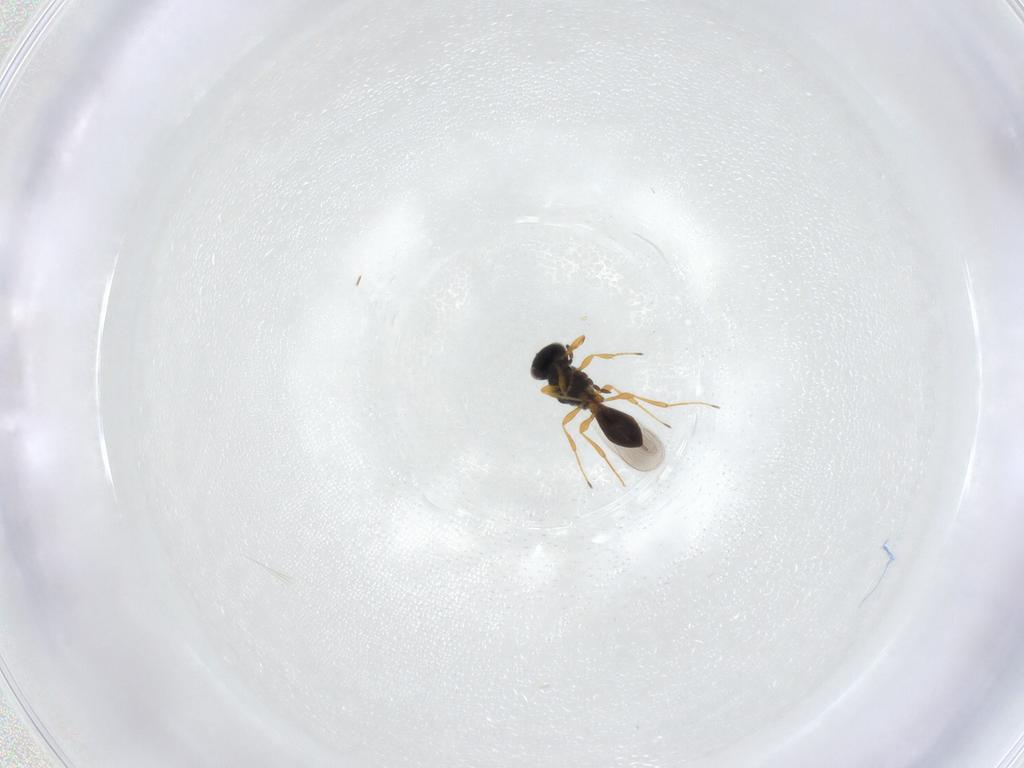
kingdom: Animalia
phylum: Arthropoda
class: Insecta
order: Hymenoptera
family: Platygastridae
